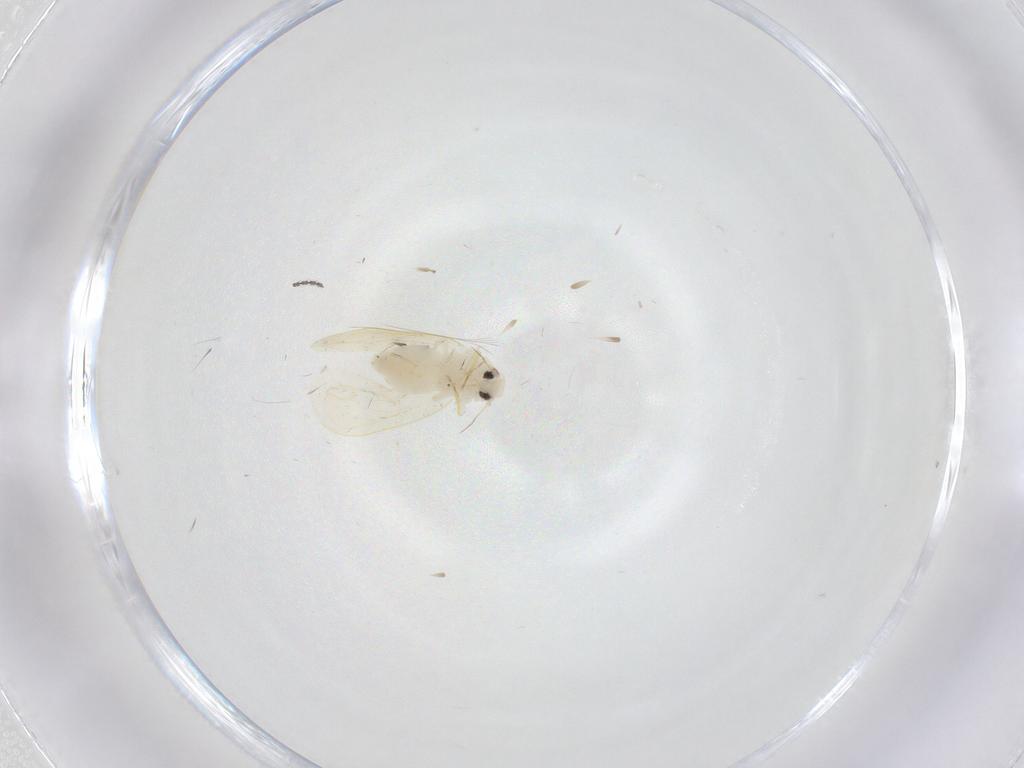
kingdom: Animalia
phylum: Arthropoda
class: Insecta
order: Hemiptera
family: Aleyrodidae
